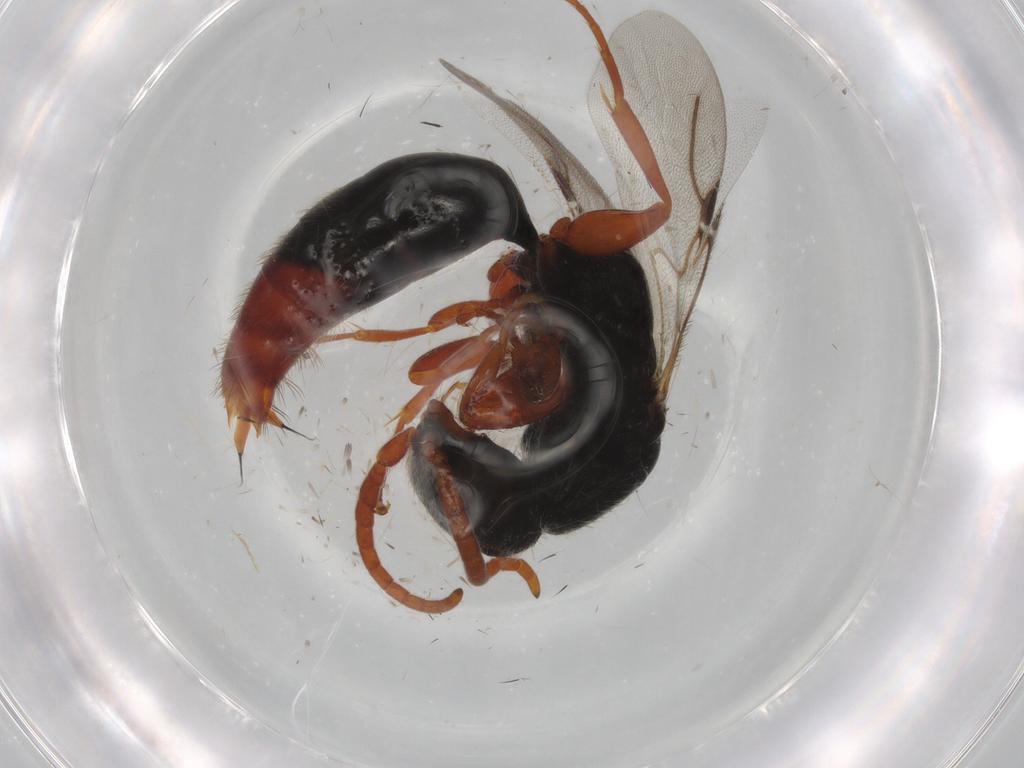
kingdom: Animalia
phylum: Arthropoda
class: Insecta
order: Hymenoptera
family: Bethylidae
